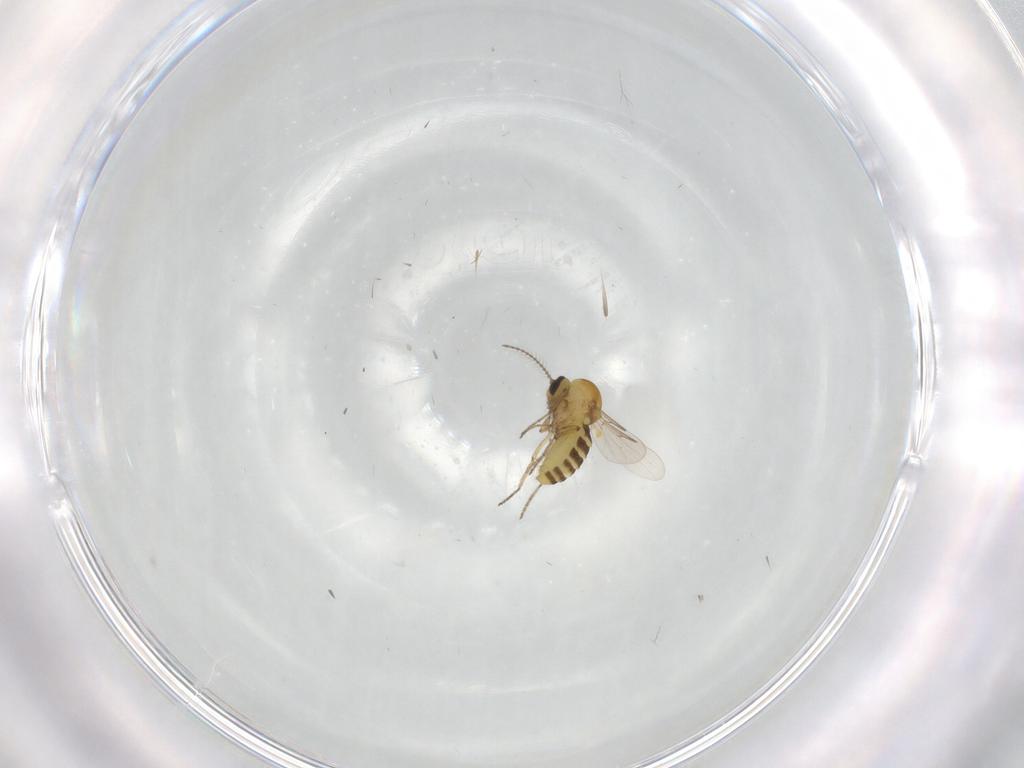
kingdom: Animalia
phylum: Arthropoda
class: Insecta
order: Diptera
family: Ceratopogonidae
